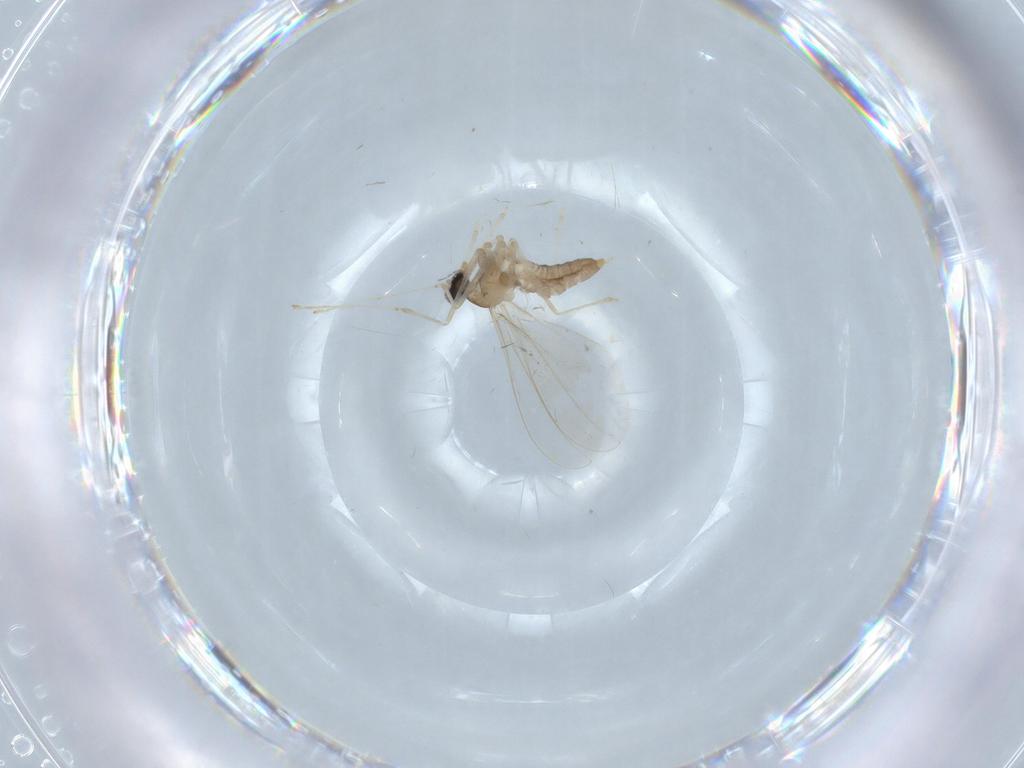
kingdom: Animalia
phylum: Arthropoda
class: Insecta
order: Diptera
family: Cecidomyiidae
